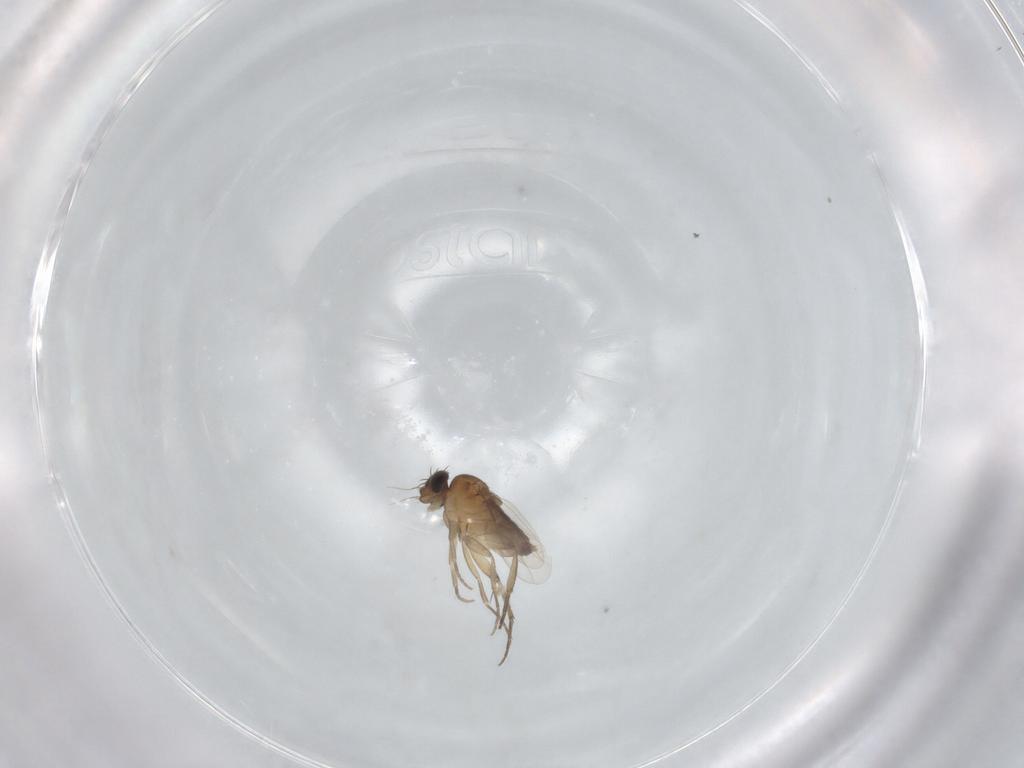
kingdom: Animalia
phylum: Arthropoda
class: Insecta
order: Diptera
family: Phoridae
